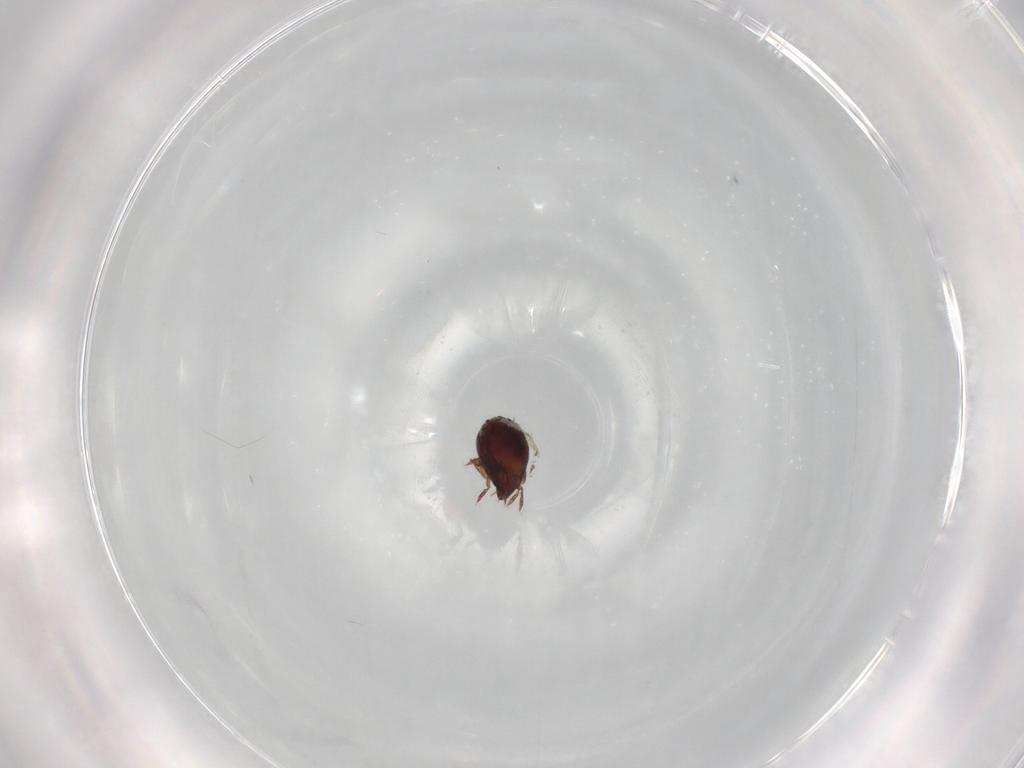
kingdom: Animalia
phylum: Arthropoda
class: Arachnida
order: Sarcoptiformes
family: Humerobatidae
